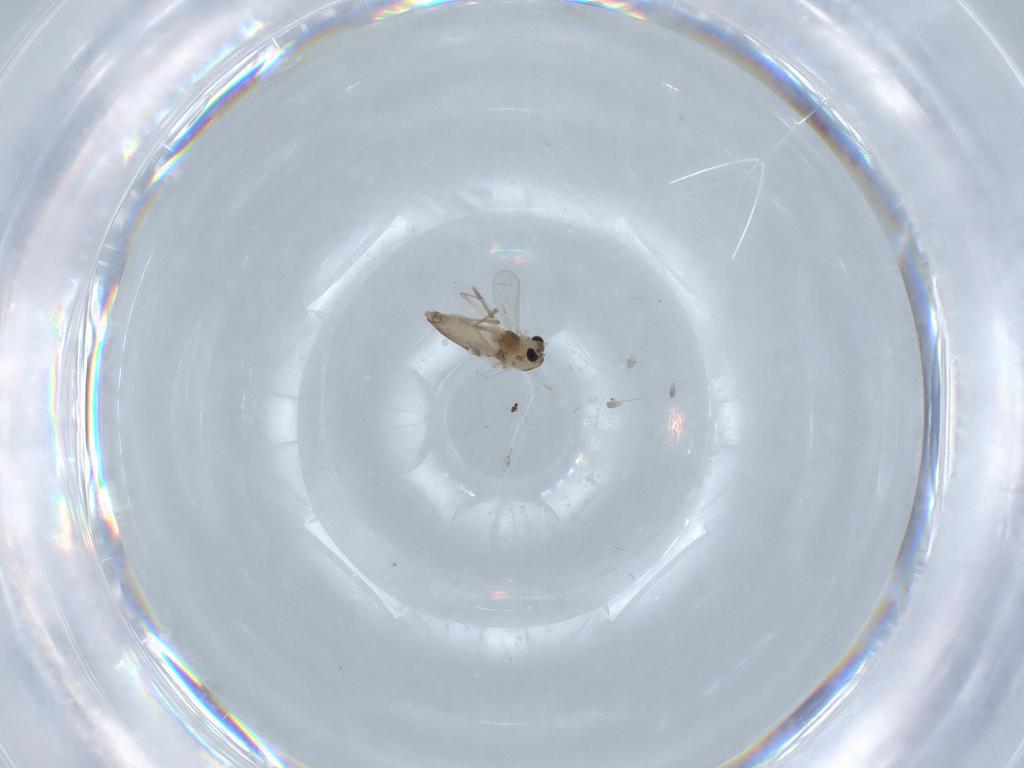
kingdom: Animalia
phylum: Arthropoda
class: Insecta
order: Diptera
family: Chironomidae
